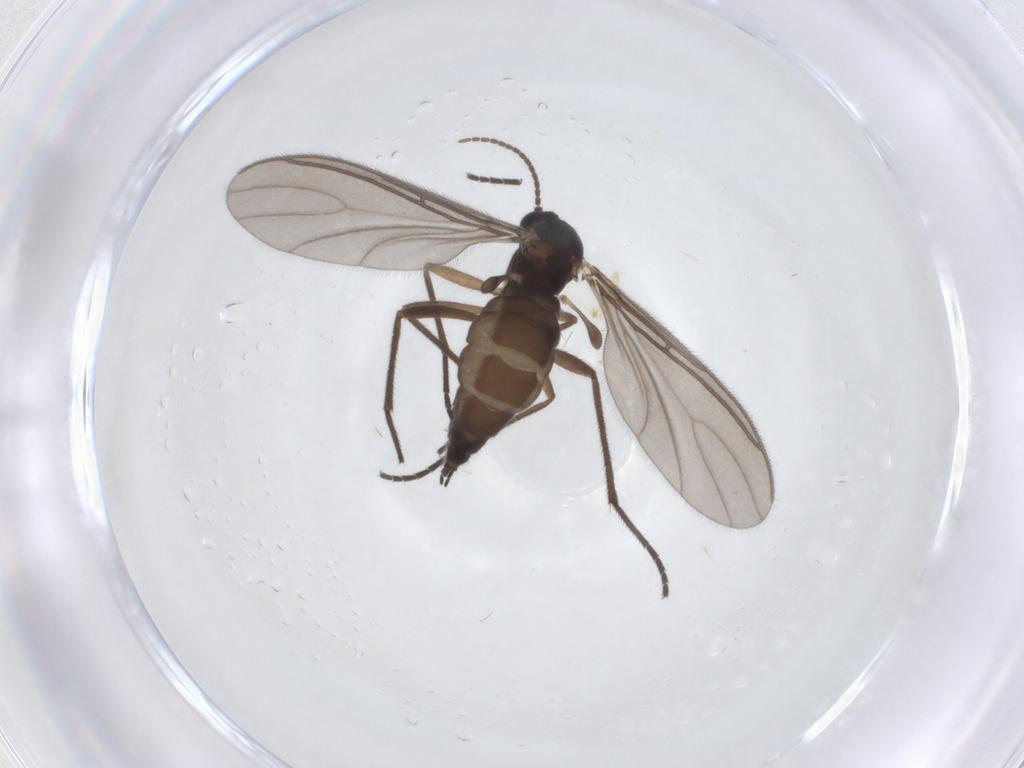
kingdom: Animalia
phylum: Arthropoda
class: Insecta
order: Diptera
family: Sciaridae
